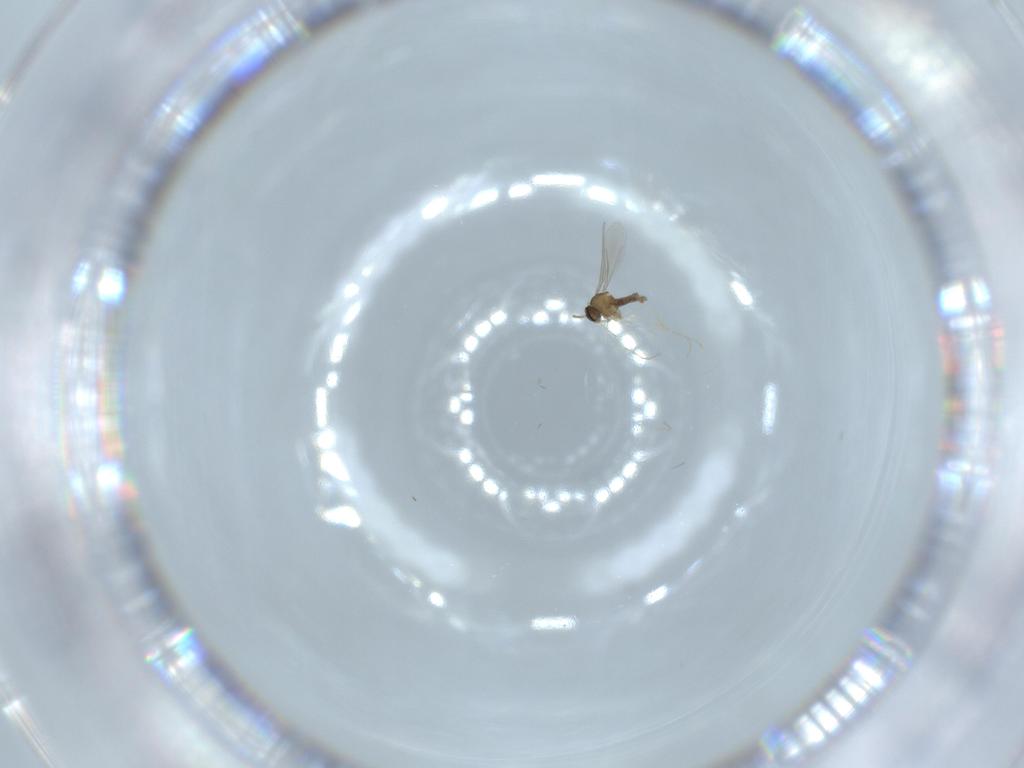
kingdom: Animalia
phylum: Arthropoda
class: Insecta
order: Diptera
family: Cecidomyiidae
